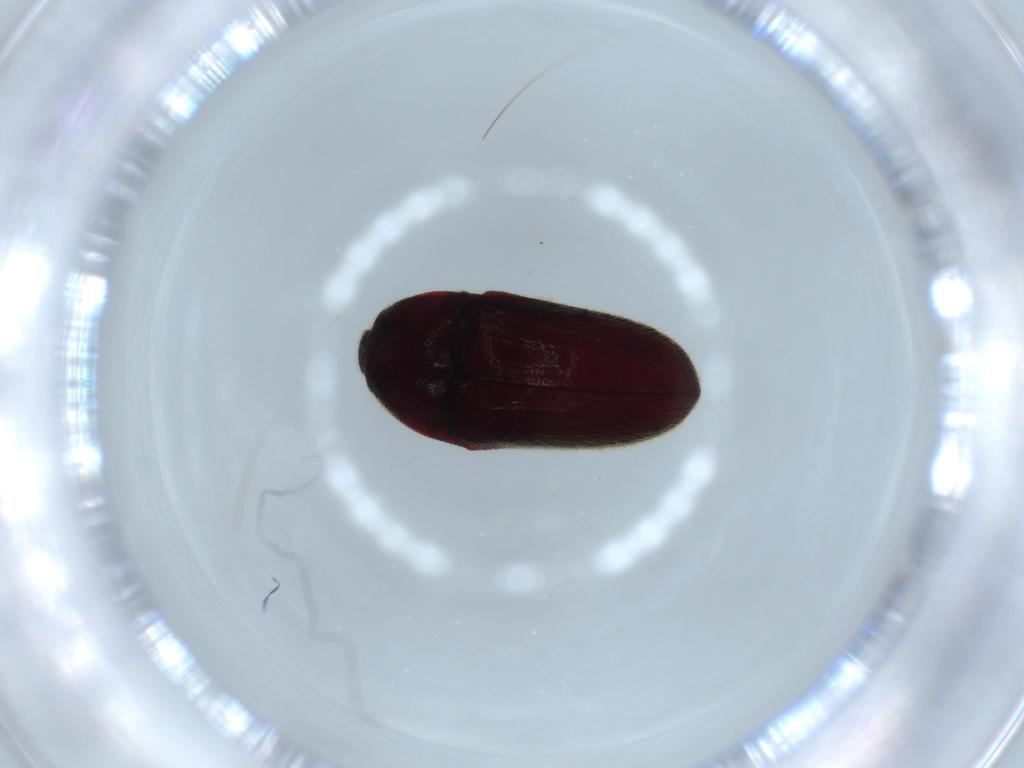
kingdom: Animalia
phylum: Arthropoda
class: Insecta
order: Coleoptera
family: Throscidae
